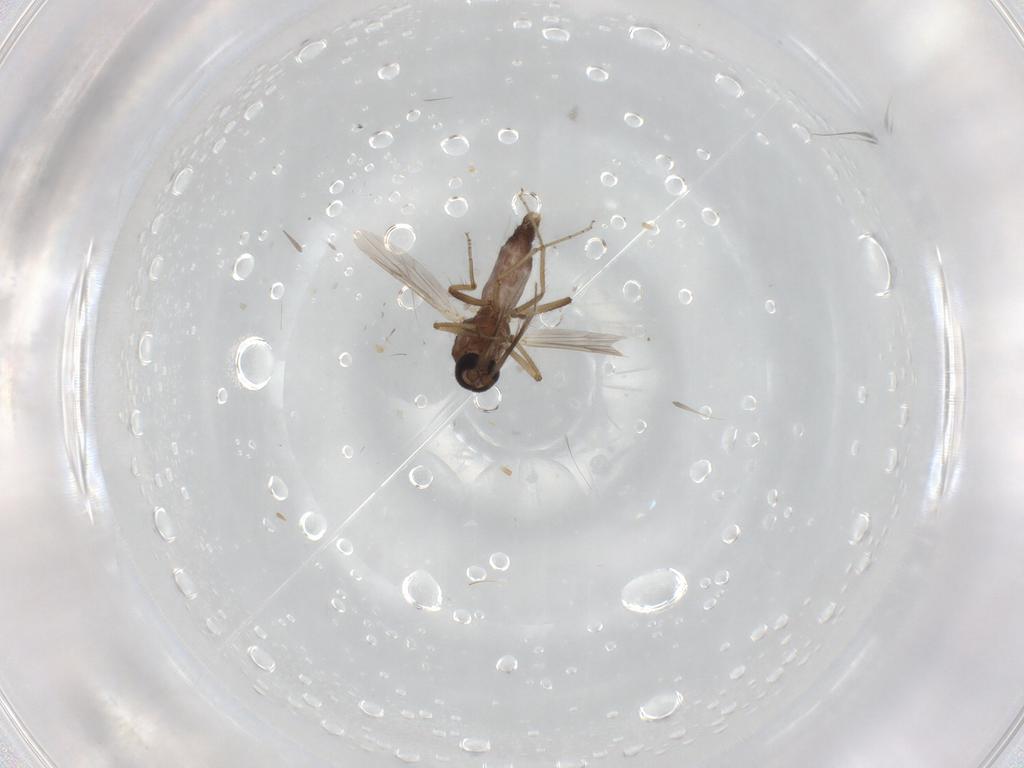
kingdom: Animalia
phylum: Arthropoda
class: Insecta
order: Diptera
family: Ceratopogonidae
